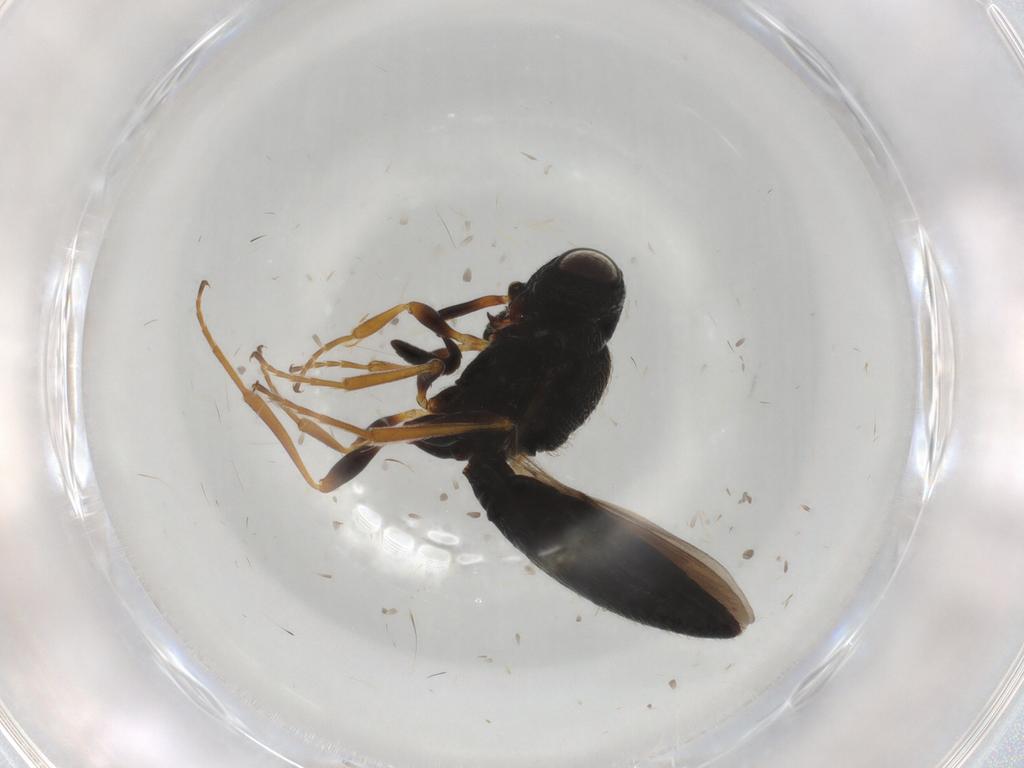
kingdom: Animalia
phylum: Arthropoda
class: Insecta
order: Hymenoptera
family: Scelionidae
